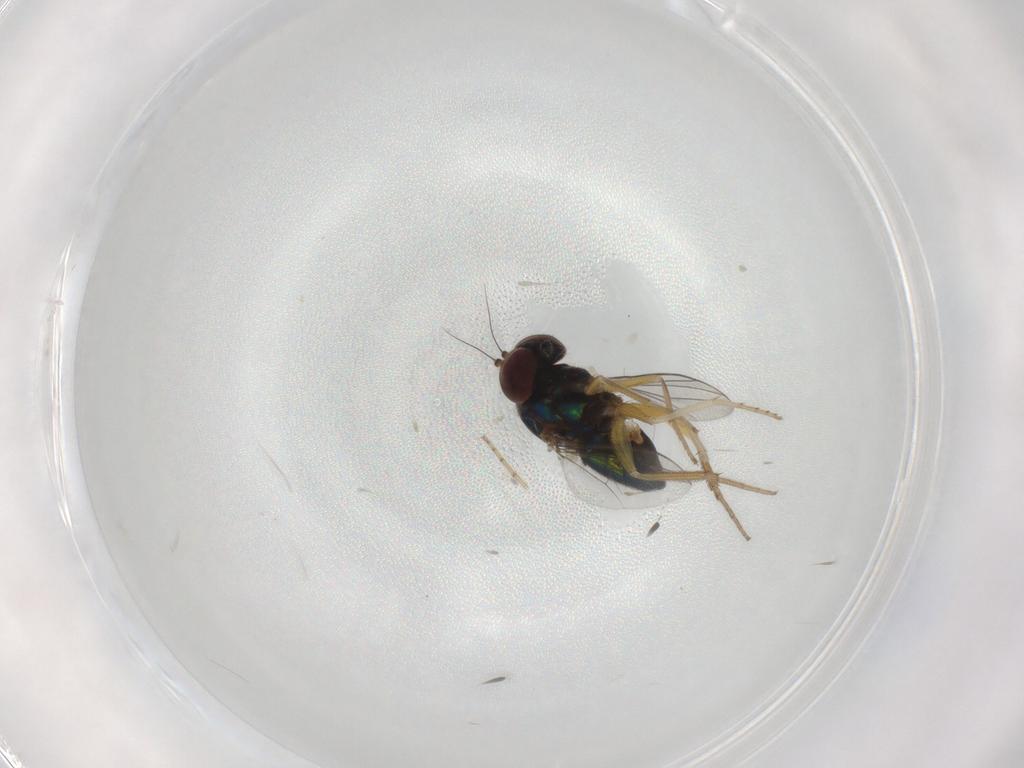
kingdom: Animalia
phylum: Arthropoda
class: Insecta
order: Diptera
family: Dolichopodidae
